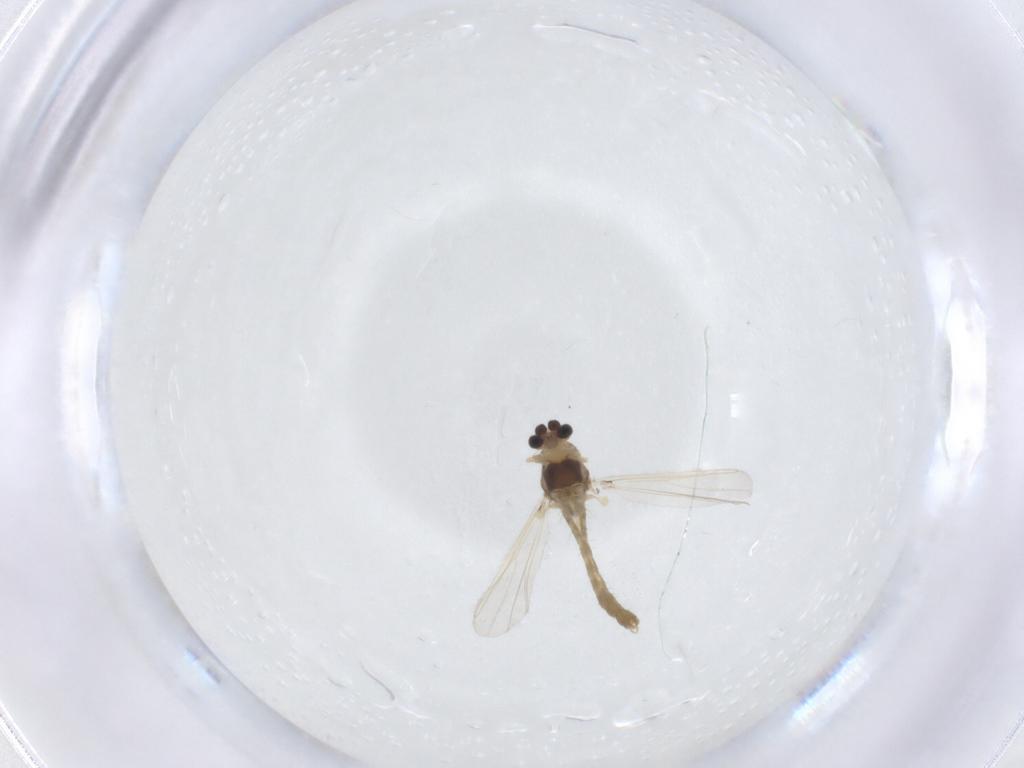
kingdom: Animalia
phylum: Arthropoda
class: Insecta
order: Diptera
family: Chironomidae
